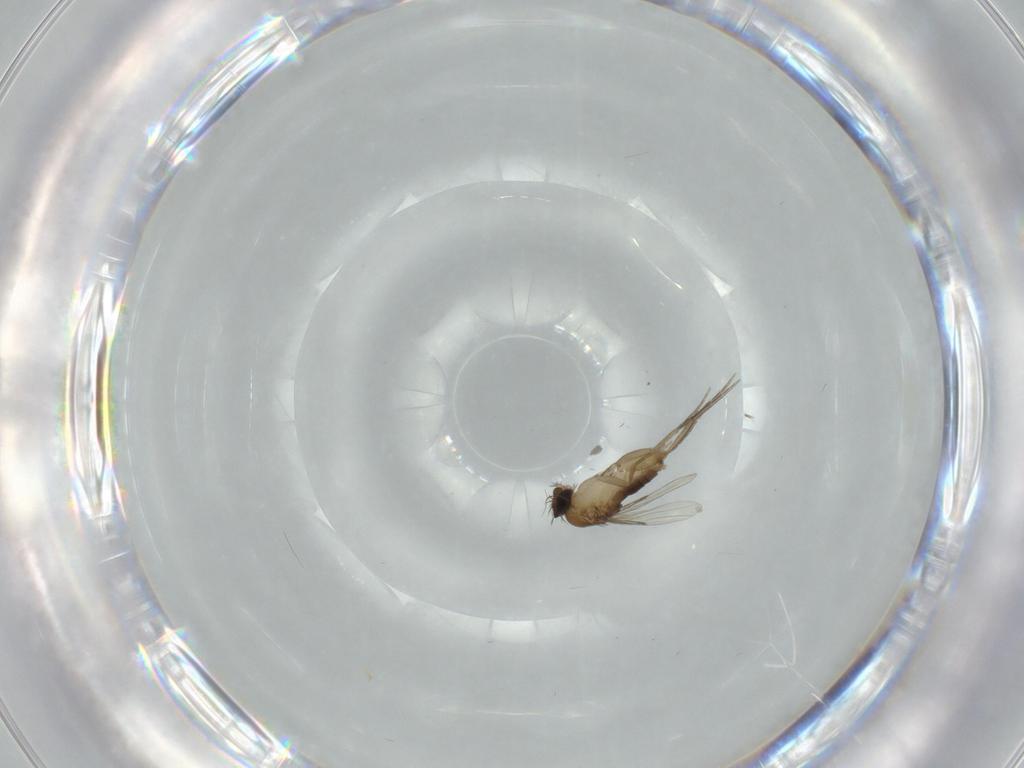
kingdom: Animalia
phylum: Arthropoda
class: Insecta
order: Diptera
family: Phoridae
